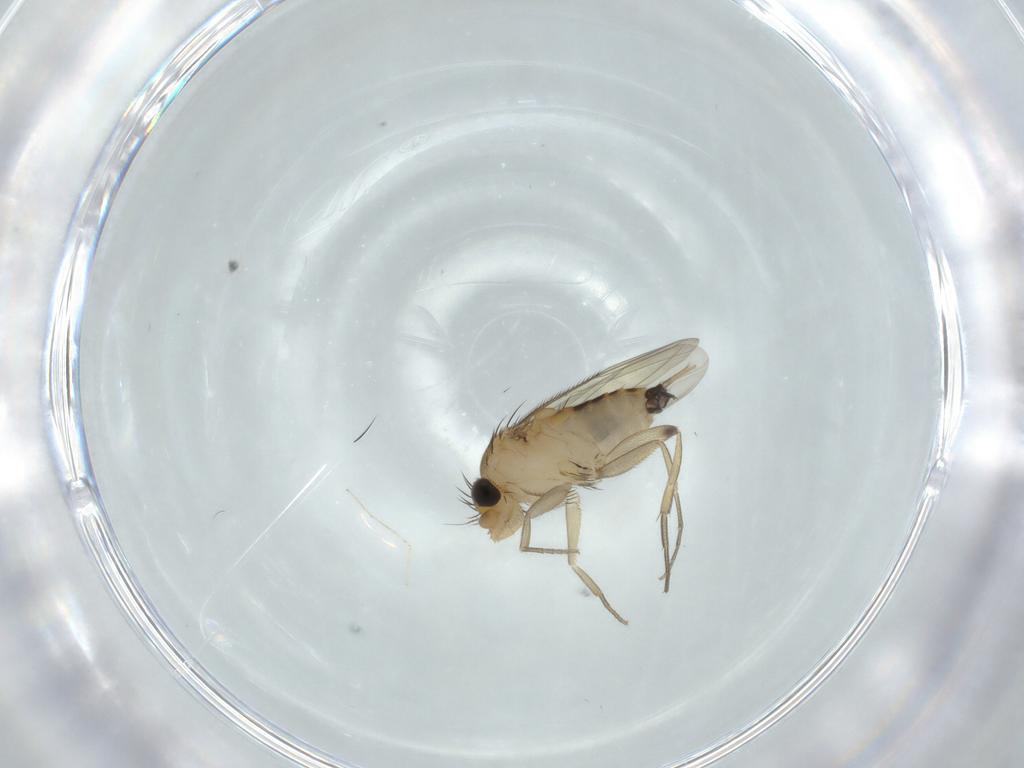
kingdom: Animalia
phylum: Arthropoda
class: Insecta
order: Diptera
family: Phoridae
